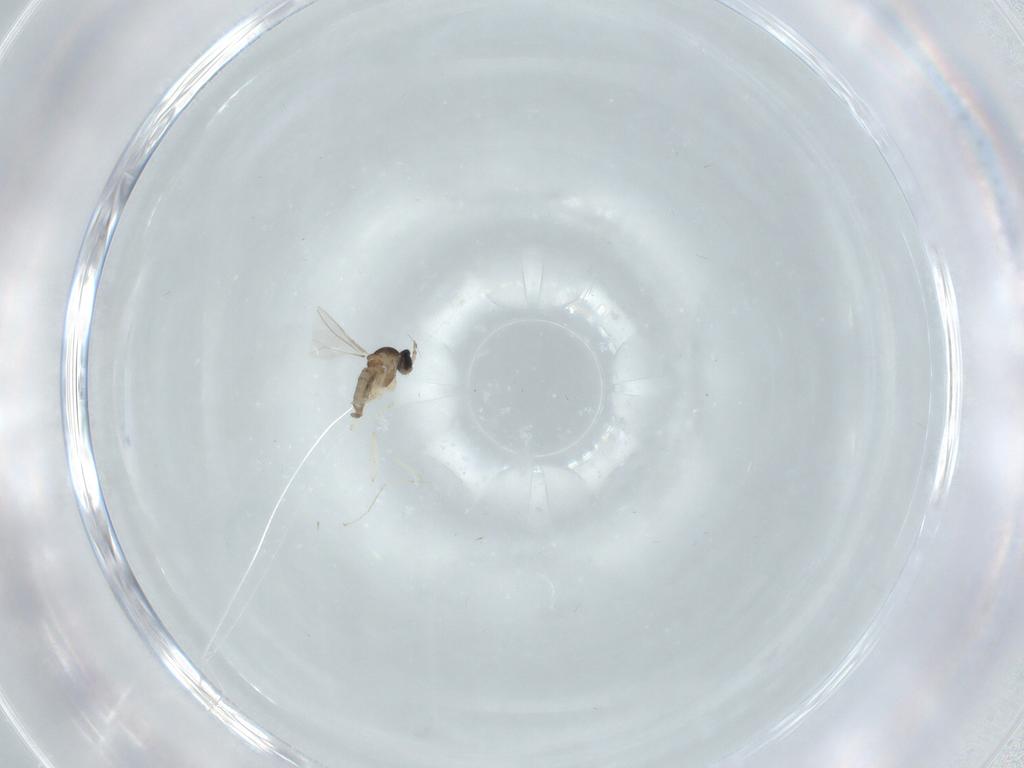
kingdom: Animalia
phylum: Arthropoda
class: Insecta
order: Diptera
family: Cecidomyiidae
